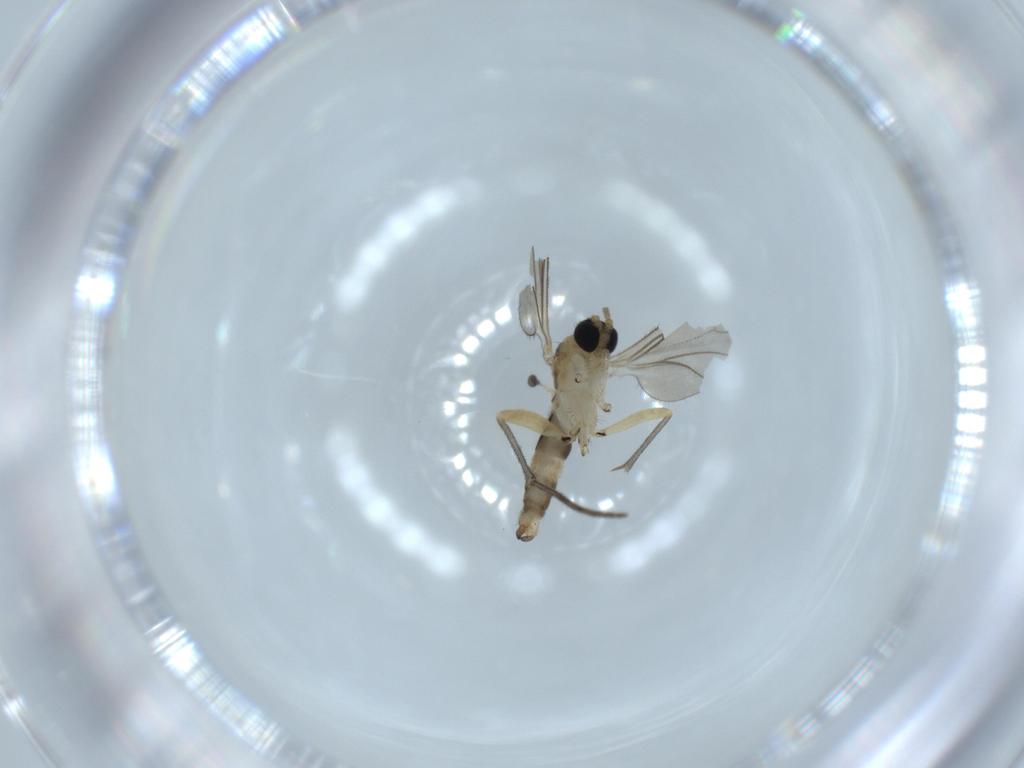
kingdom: Animalia
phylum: Arthropoda
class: Insecta
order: Diptera
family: Sciaridae
